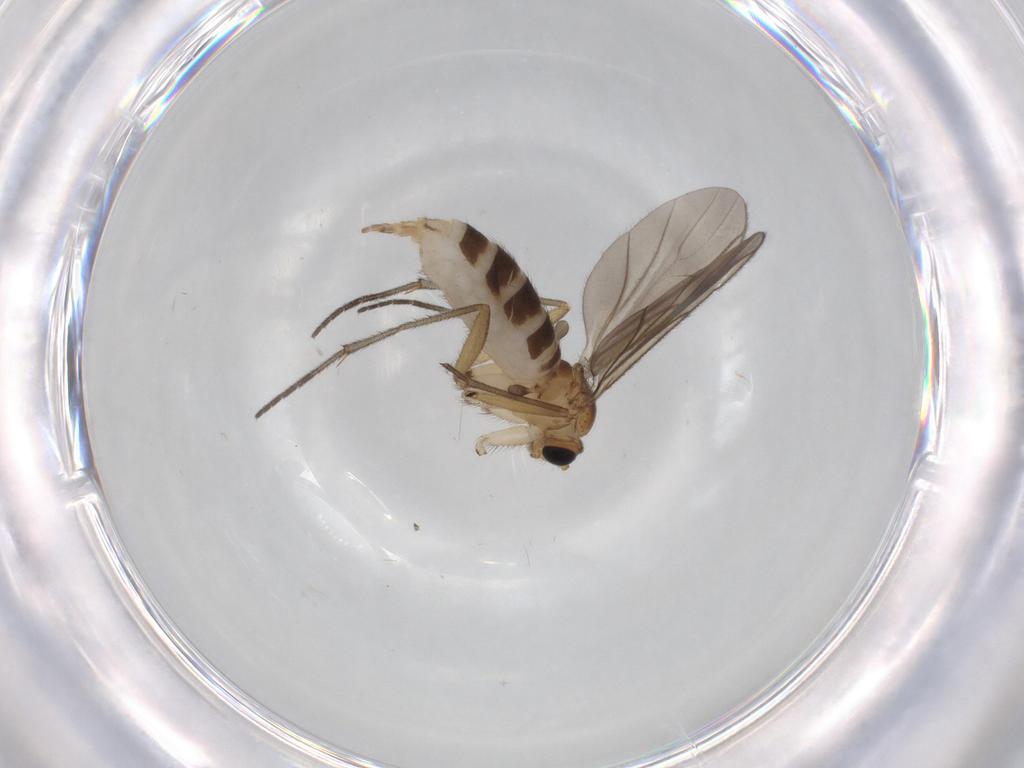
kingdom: Animalia
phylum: Arthropoda
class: Insecta
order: Diptera
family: Sciaridae
